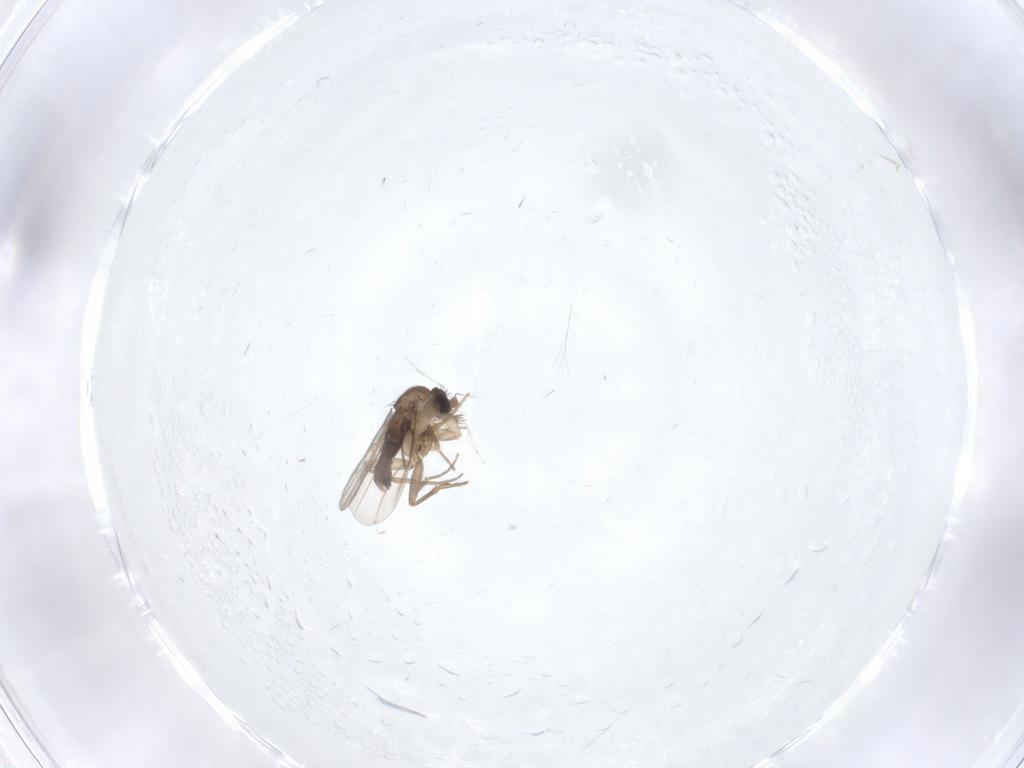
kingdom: Animalia
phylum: Arthropoda
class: Insecta
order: Diptera
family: Phoridae
